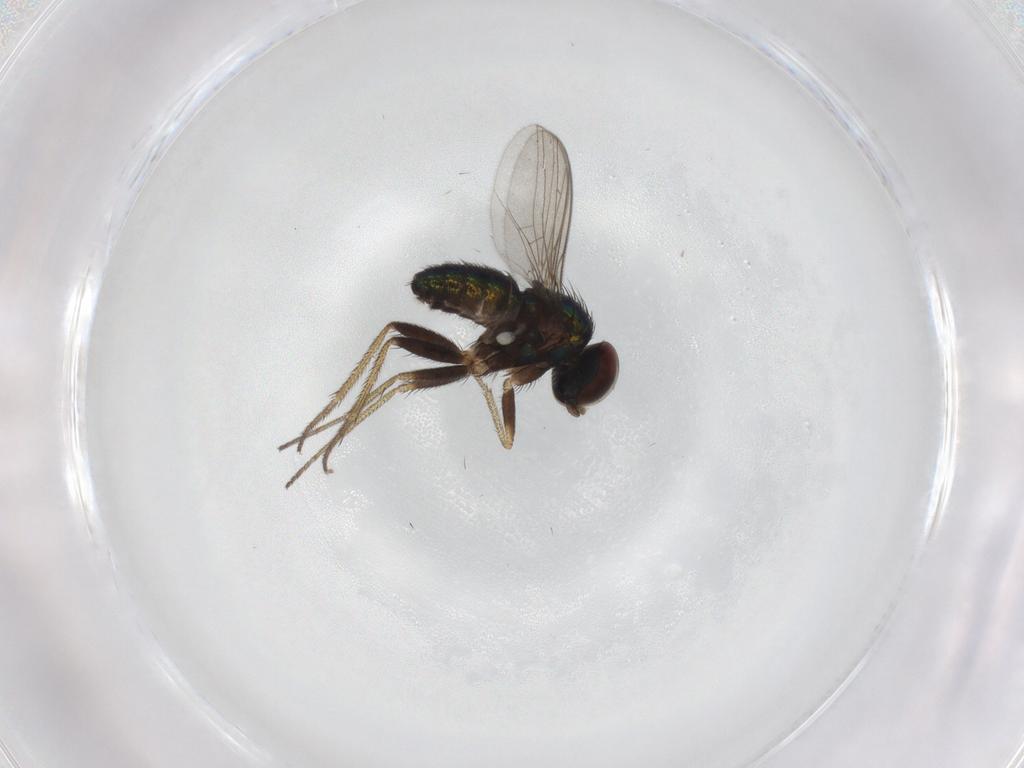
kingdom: Animalia
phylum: Arthropoda
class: Insecta
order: Diptera
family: Dolichopodidae
